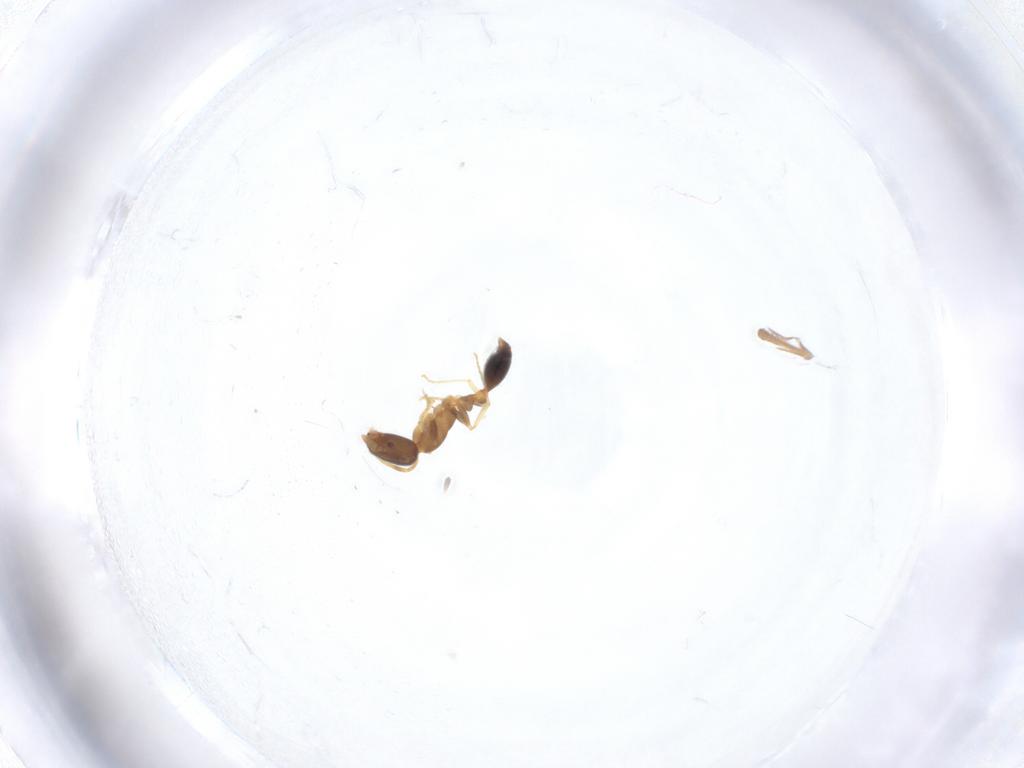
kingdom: Animalia
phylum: Arthropoda
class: Insecta
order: Hymenoptera
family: Formicidae
